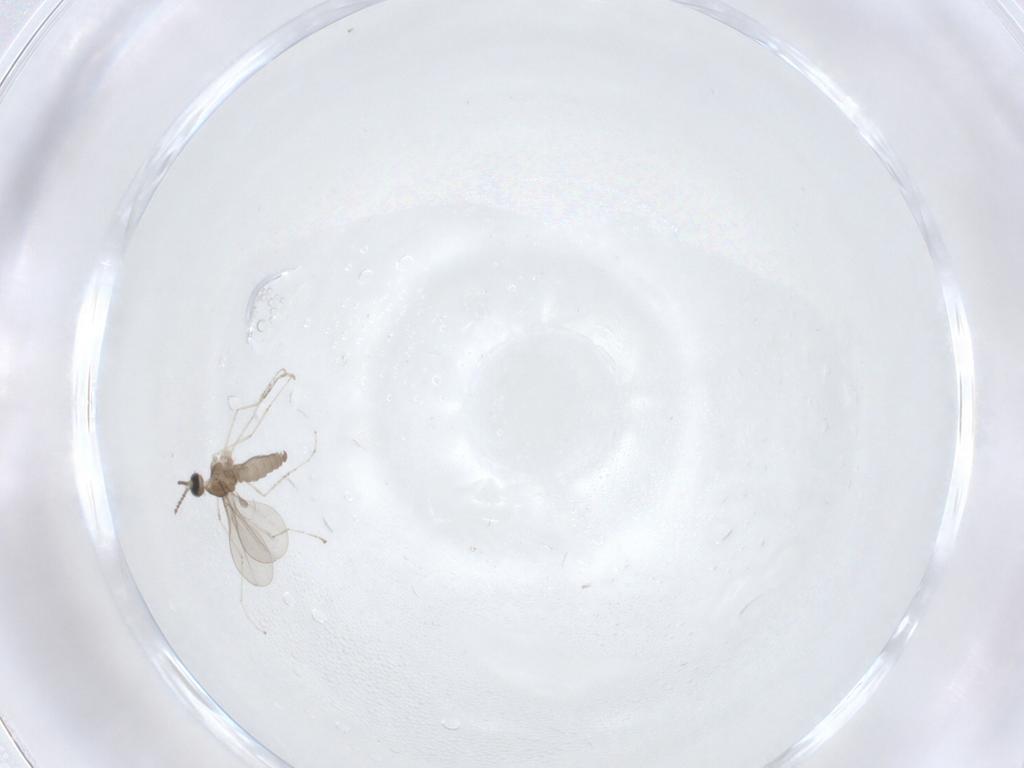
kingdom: Animalia
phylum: Arthropoda
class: Insecta
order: Diptera
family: Cecidomyiidae
